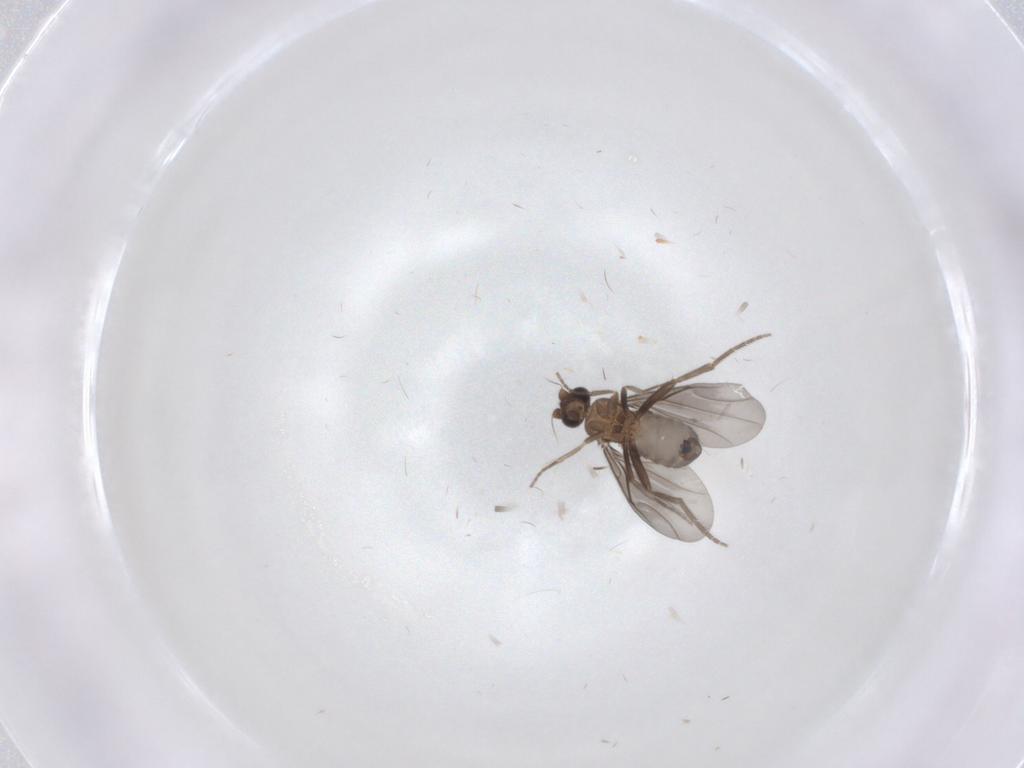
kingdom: Animalia
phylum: Arthropoda
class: Insecta
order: Diptera
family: Phoridae
